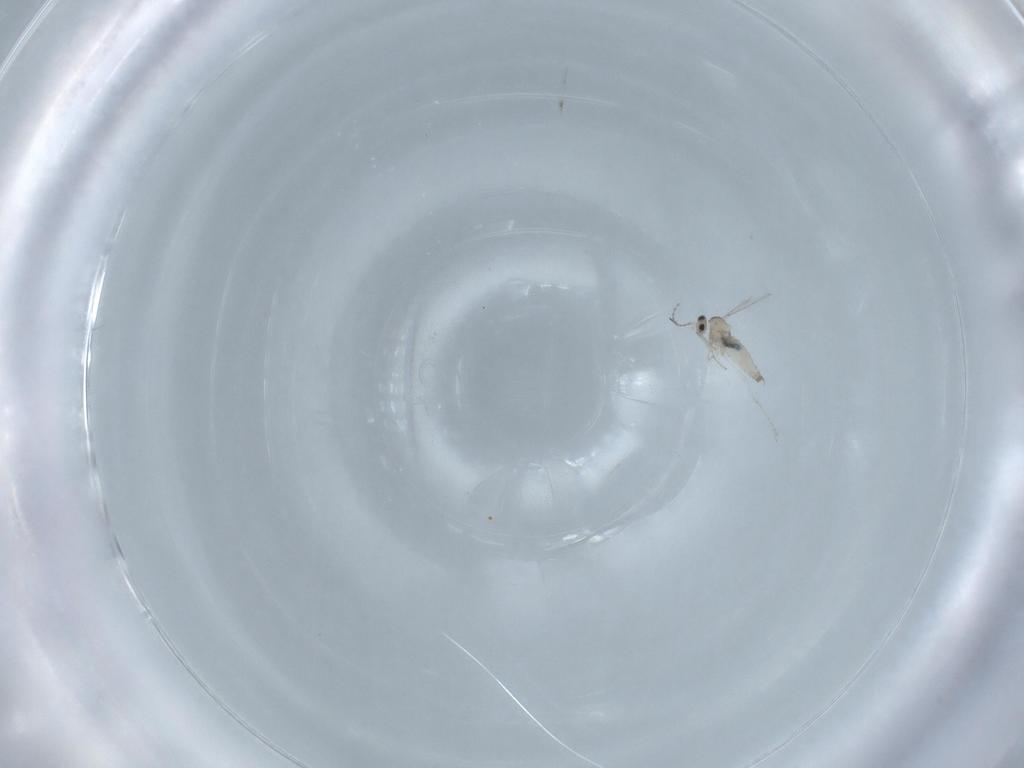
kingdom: Animalia
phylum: Arthropoda
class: Insecta
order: Diptera
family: Cecidomyiidae
